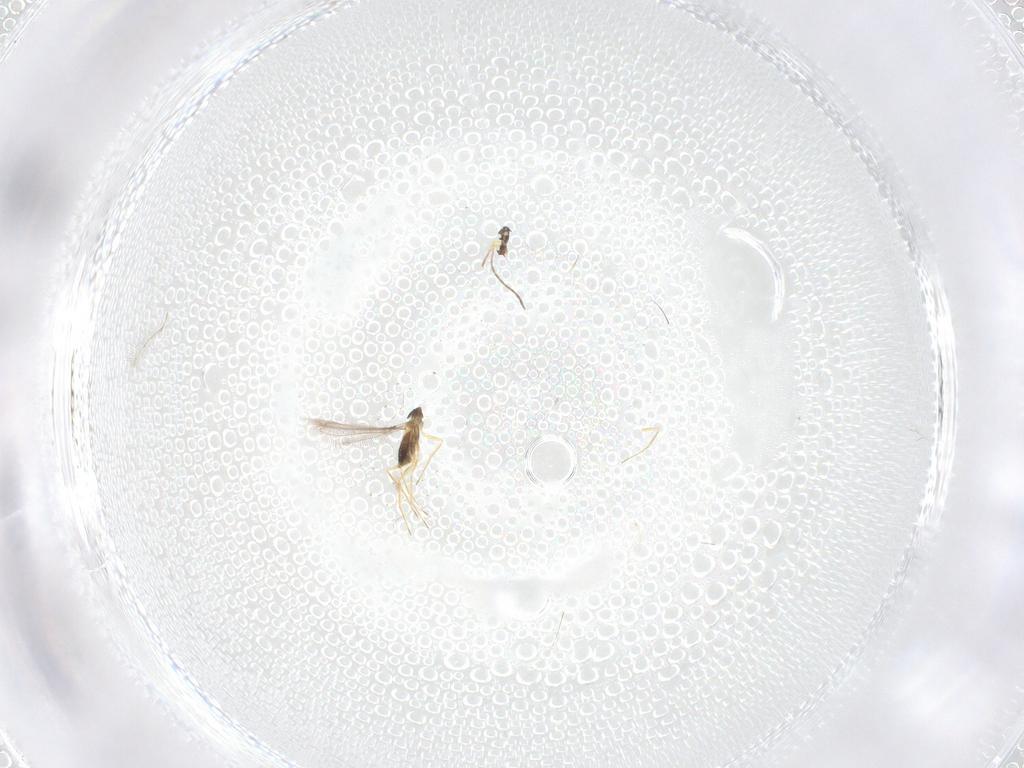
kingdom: Animalia
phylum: Arthropoda
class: Insecta
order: Hymenoptera
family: Mymaridae
